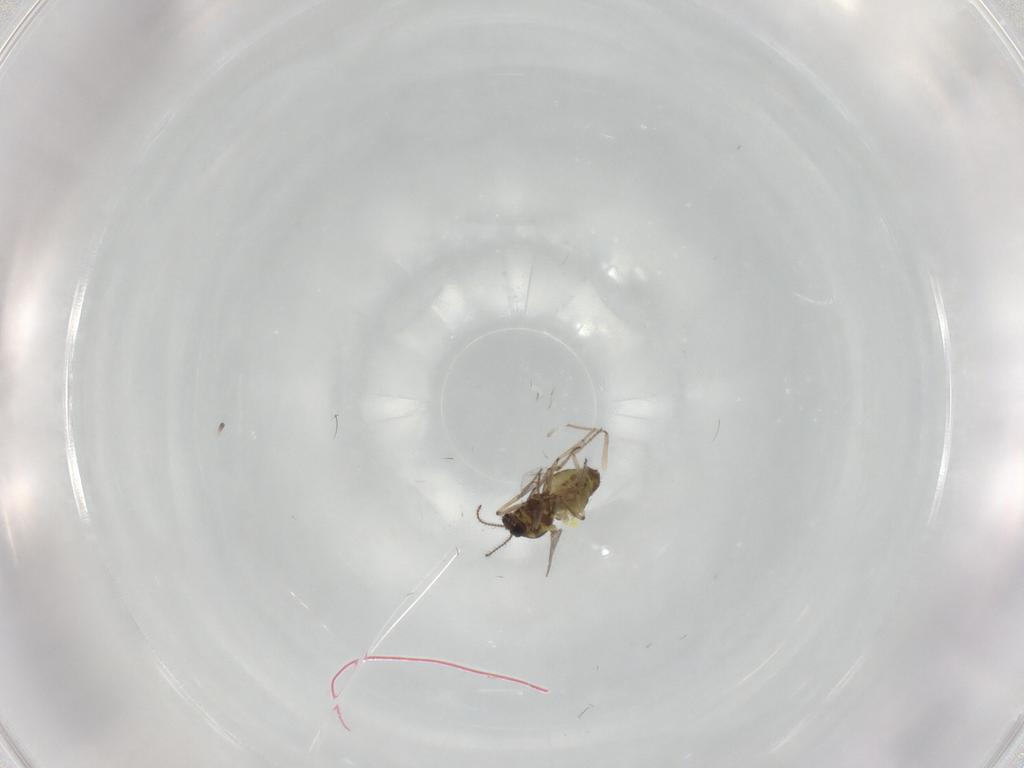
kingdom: Animalia
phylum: Arthropoda
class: Insecta
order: Diptera
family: Ceratopogonidae
